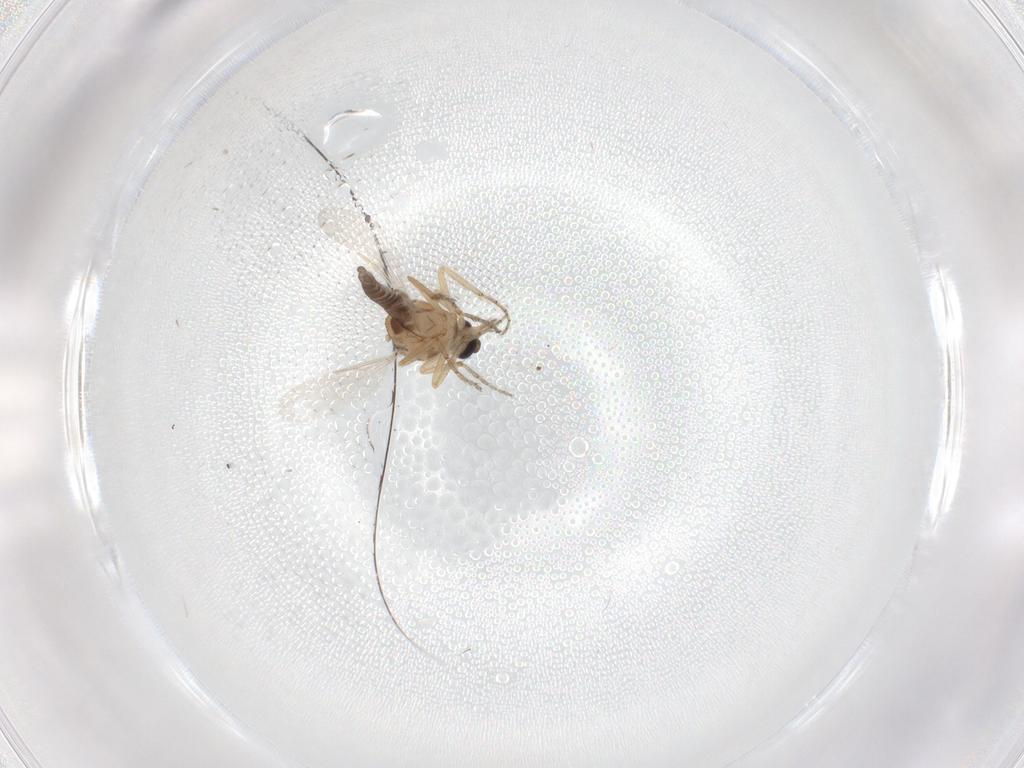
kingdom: Animalia
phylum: Arthropoda
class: Insecta
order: Diptera
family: Ceratopogonidae
